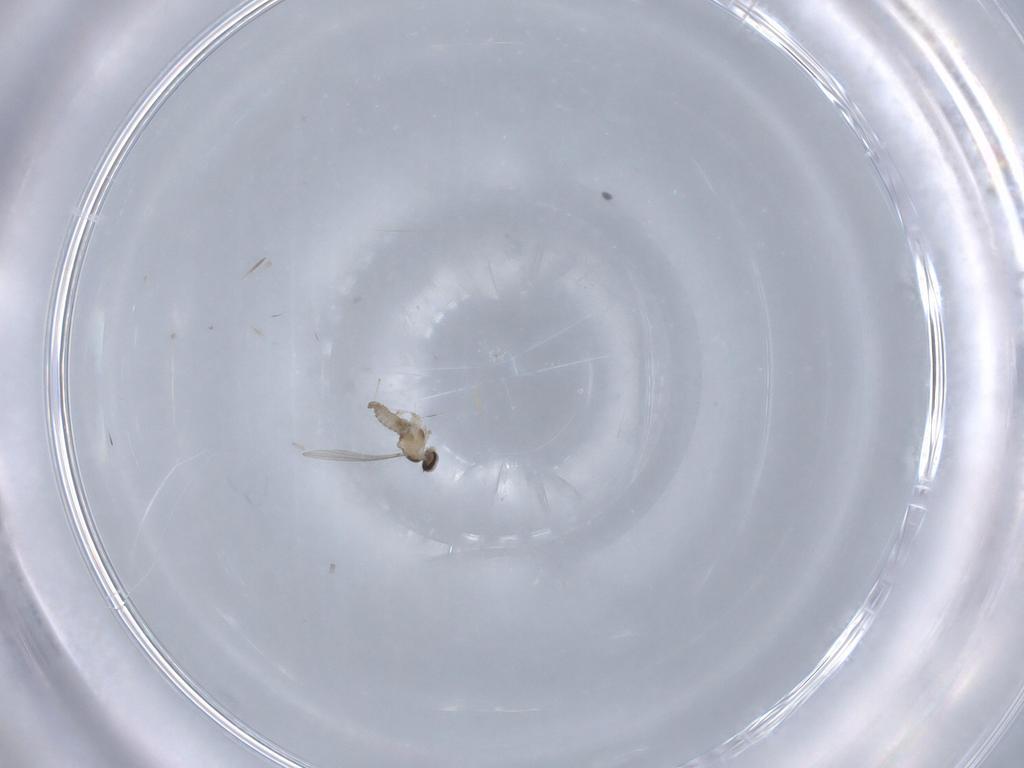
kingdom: Animalia
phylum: Arthropoda
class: Insecta
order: Diptera
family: Cecidomyiidae
